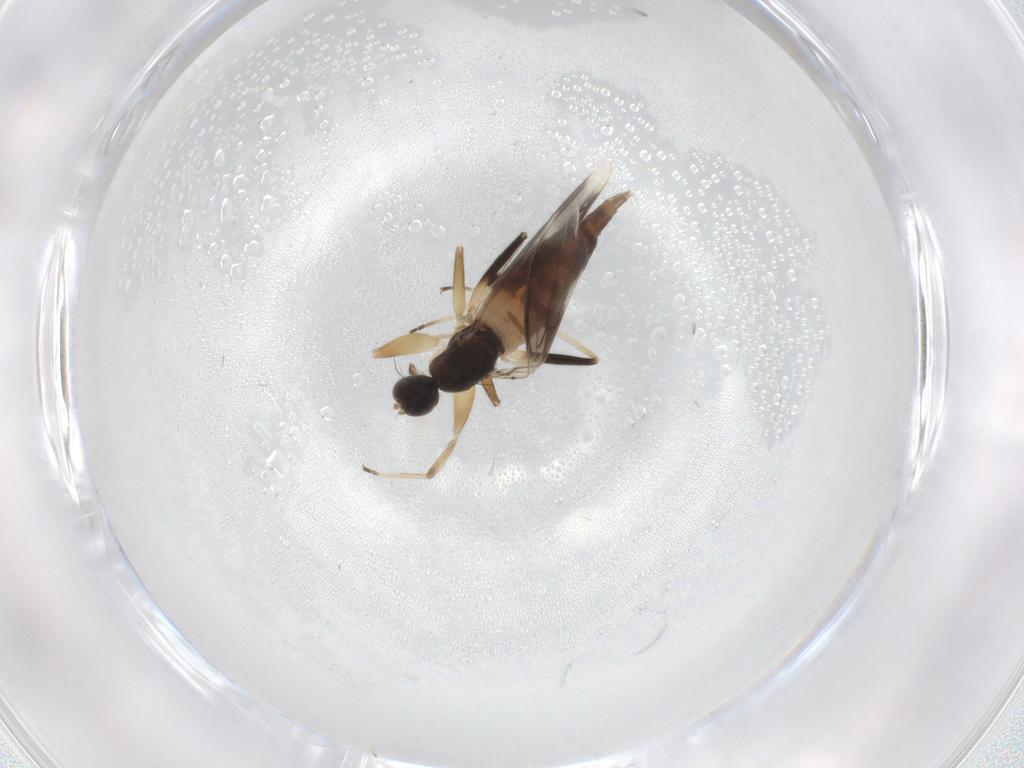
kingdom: Animalia
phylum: Arthropoda
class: Insecta
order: Diptera
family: Hybotidae
